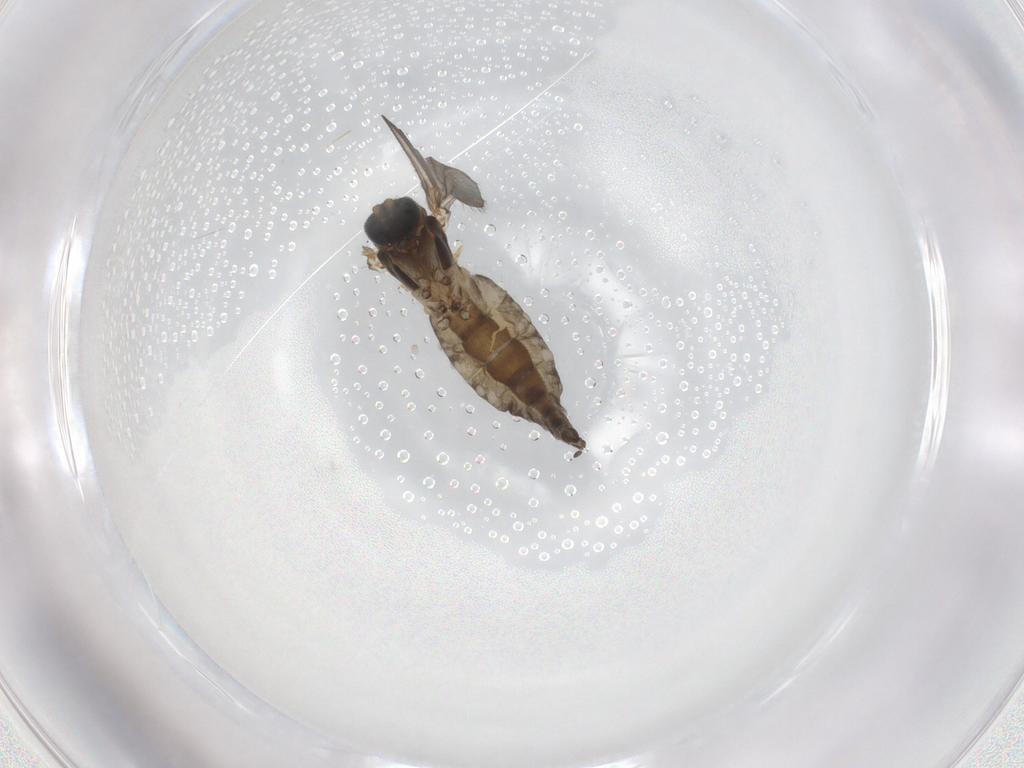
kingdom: Animalia
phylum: Arthropoda
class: Insecta
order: Diptera
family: Sciaridae
